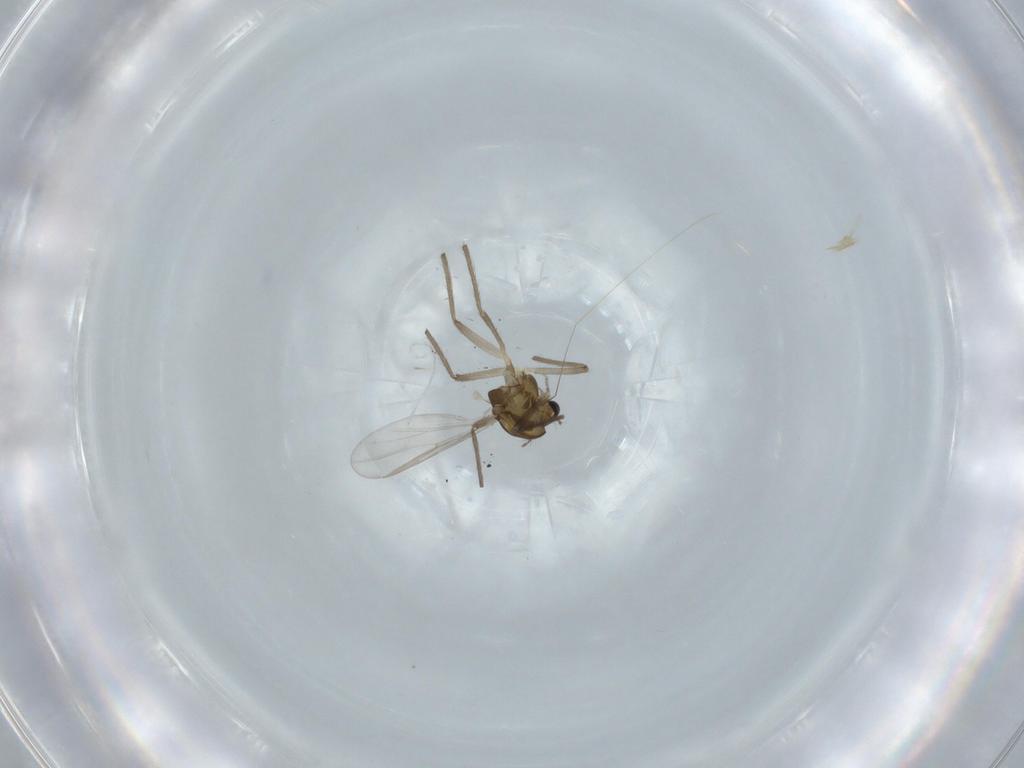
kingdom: Animalia
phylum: Arthropoda
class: Insecta
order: Diptera
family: Chironomidae
